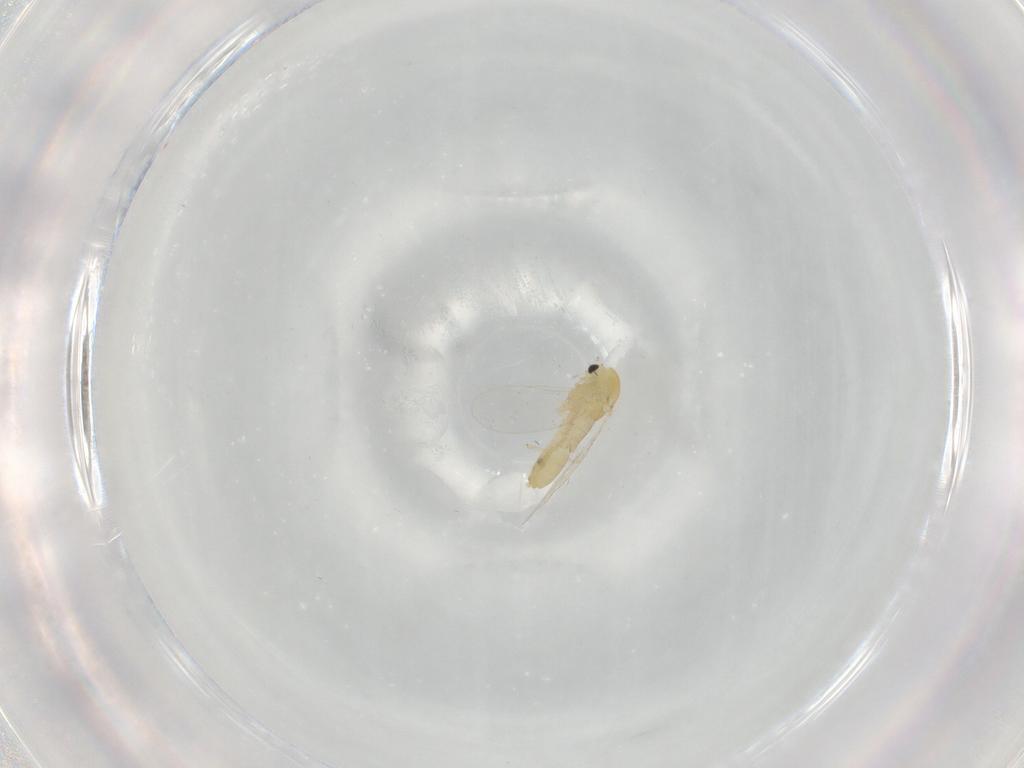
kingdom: Animalia
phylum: Arthropoda
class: Insecta
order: Diptera
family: Chironomidae
